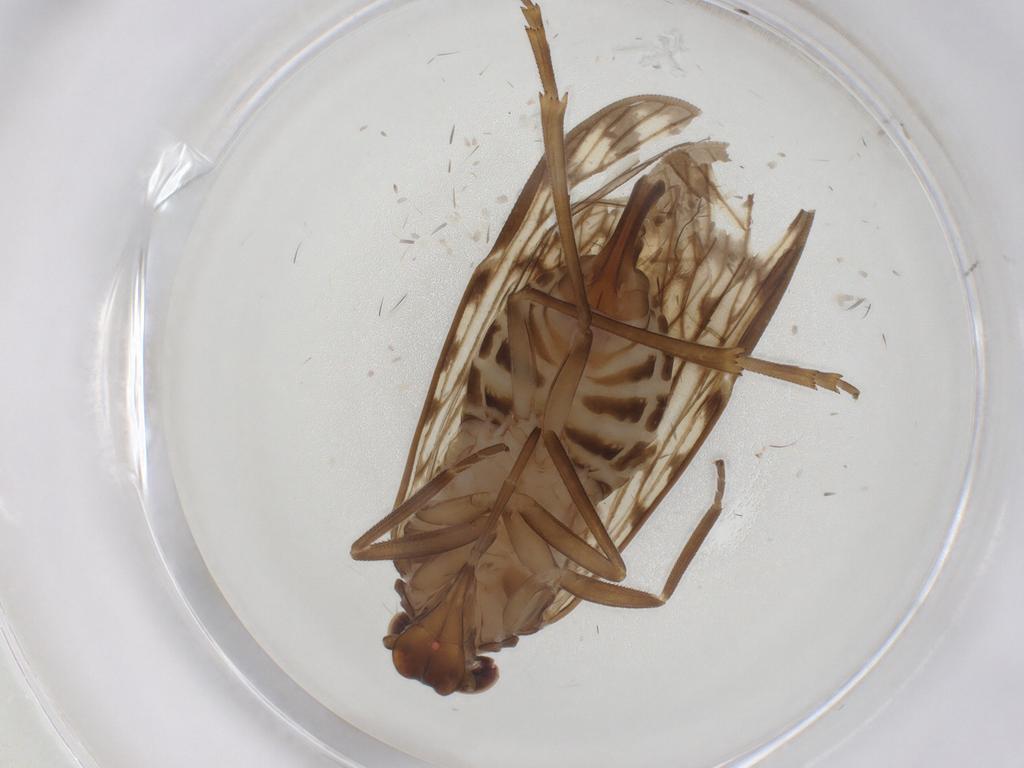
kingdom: Animalia
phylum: Arthropoda
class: Insecta
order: Hemiptera
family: Cixiidae
